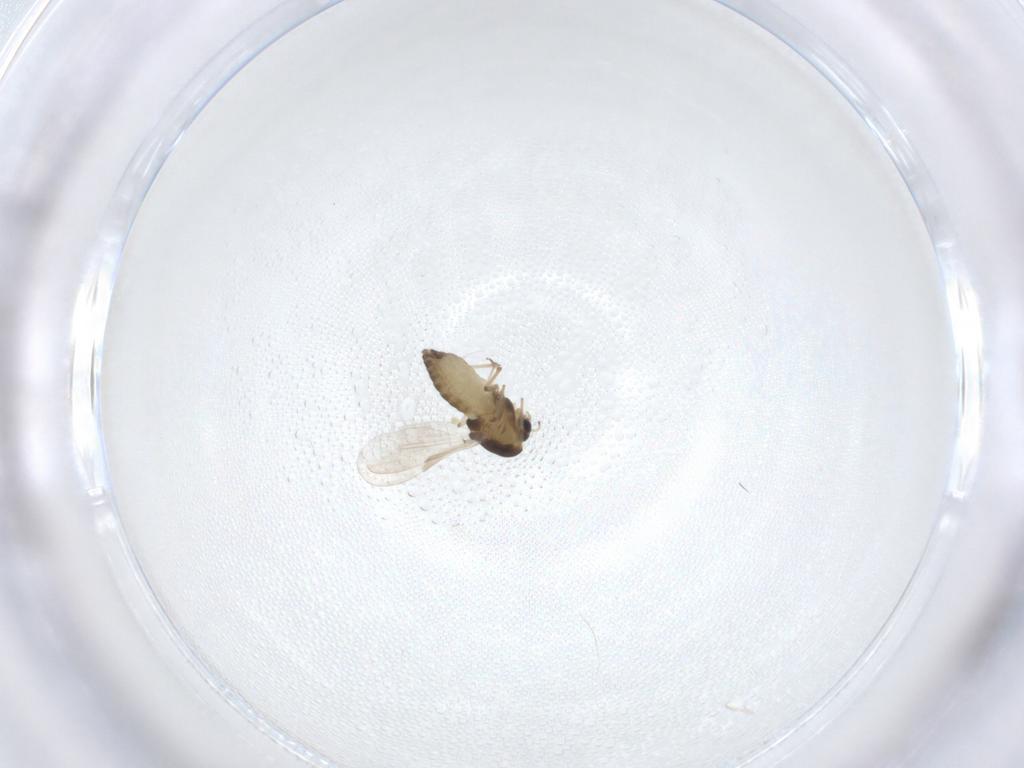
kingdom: Animalia
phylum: Arthropoda
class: Insecta
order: Diptera
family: Chironomidae
